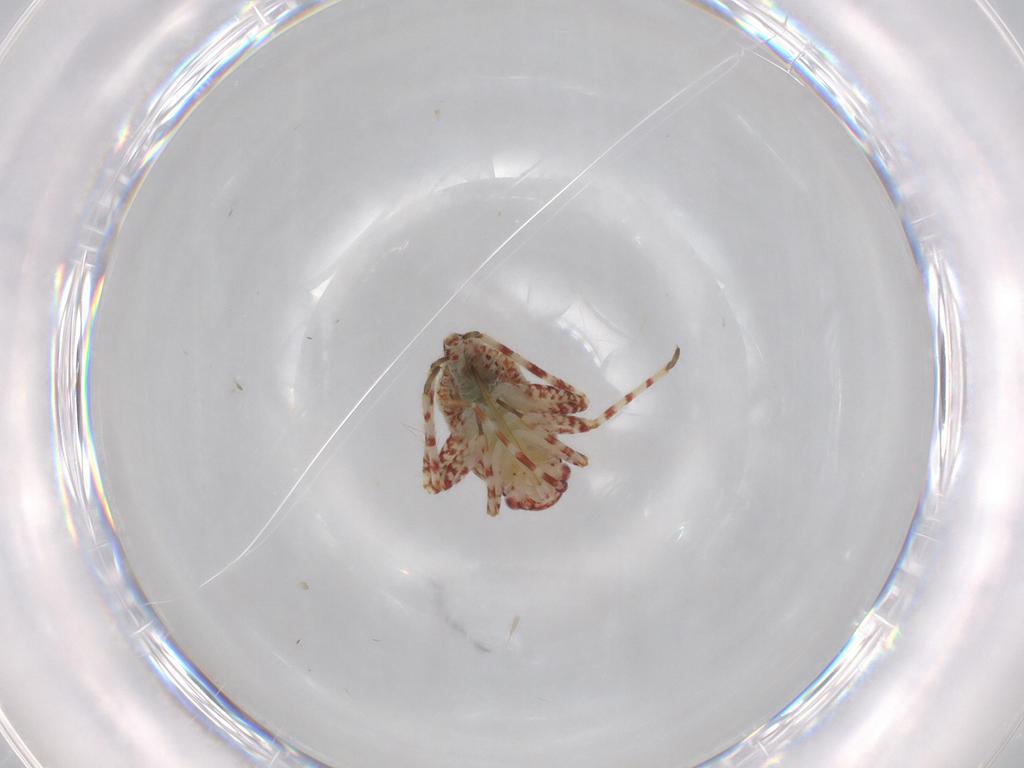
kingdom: Animalia
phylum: Arthropoda
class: Insecta
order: Hemiptera
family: Miridae
